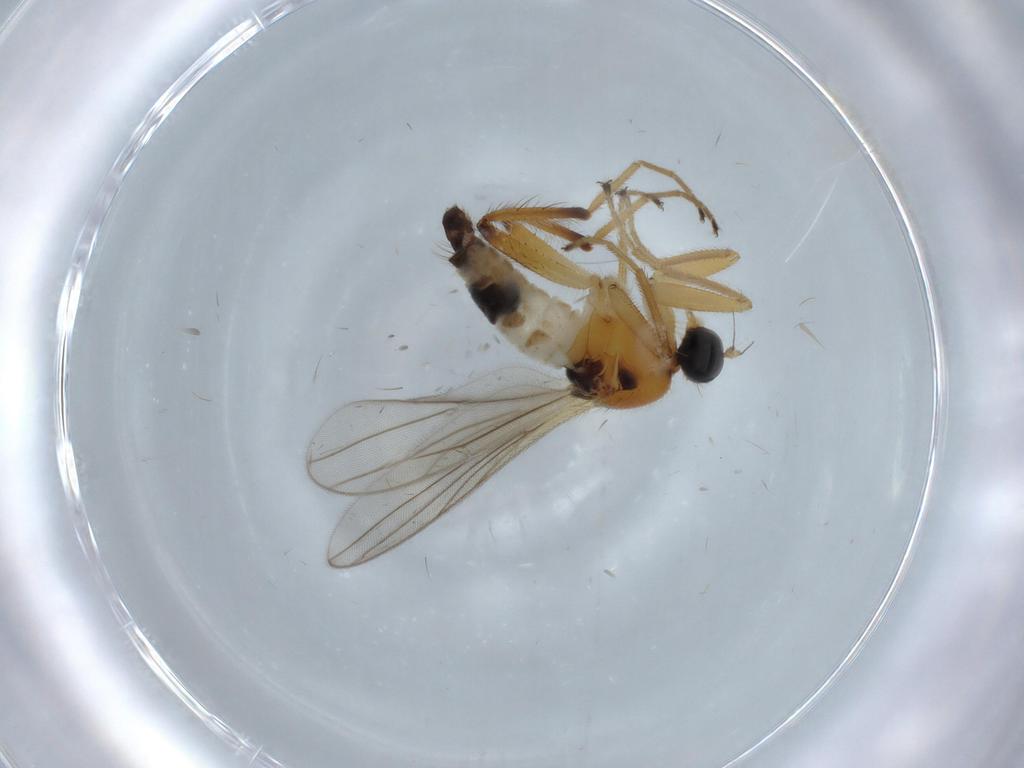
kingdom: Animalia
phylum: Arthropoda
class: Insecta
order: Diptera
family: Hybotidae
